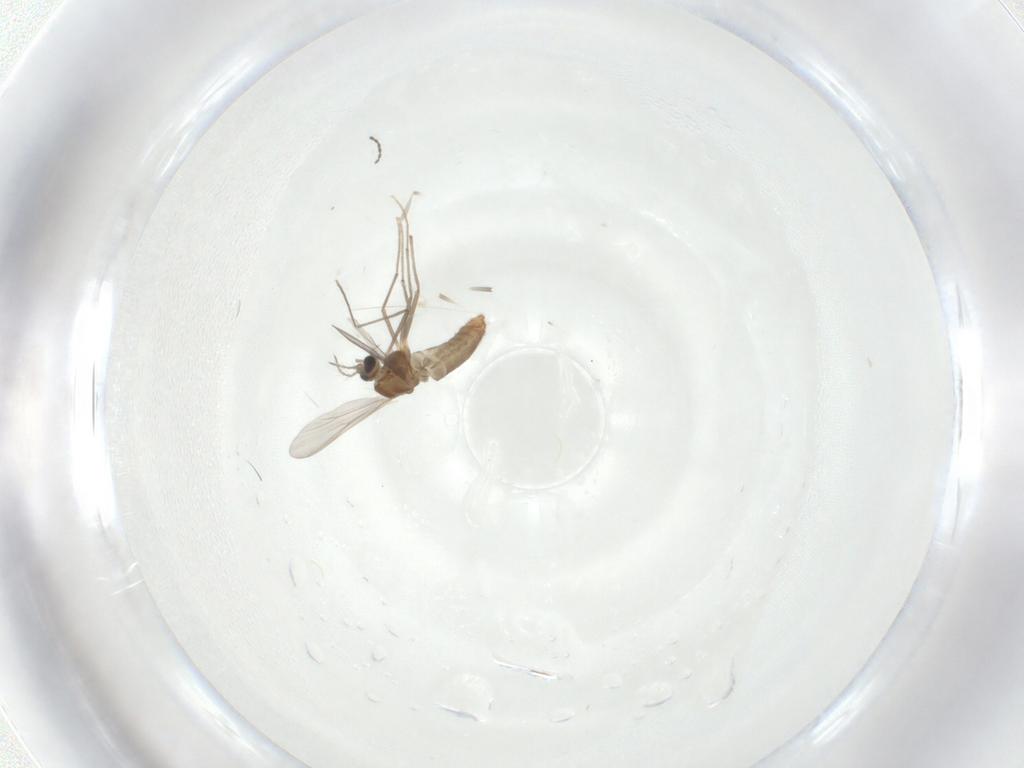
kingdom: Animalia
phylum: Arthropoda
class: Insecta
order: Diptera
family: Chironomidae
